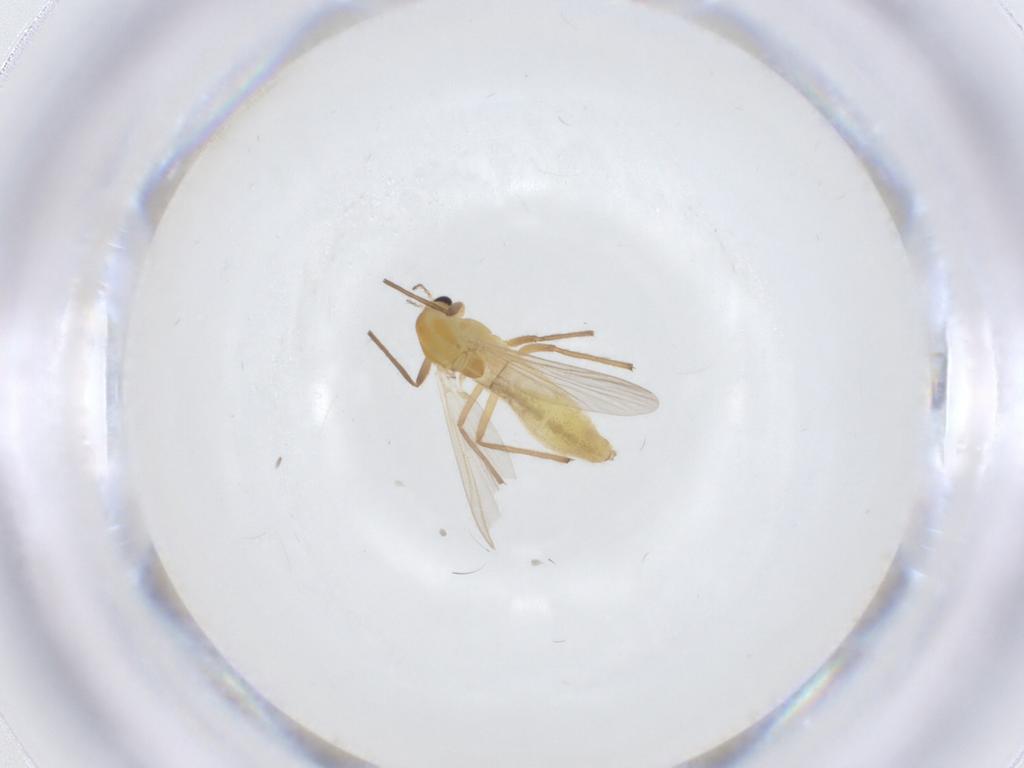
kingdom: Animalia
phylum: Arthropoda
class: Insecta
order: Diptera
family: Chironomidae
